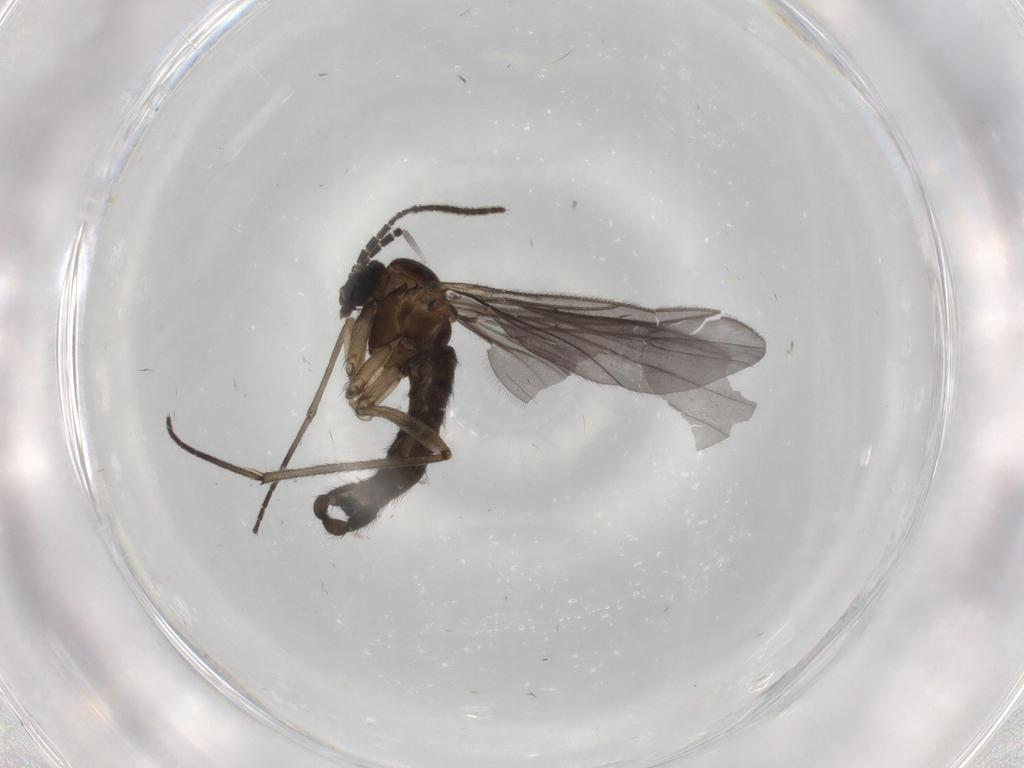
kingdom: Animalia
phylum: Arthropoda
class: Insecta
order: Diptera
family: Sciaridae
